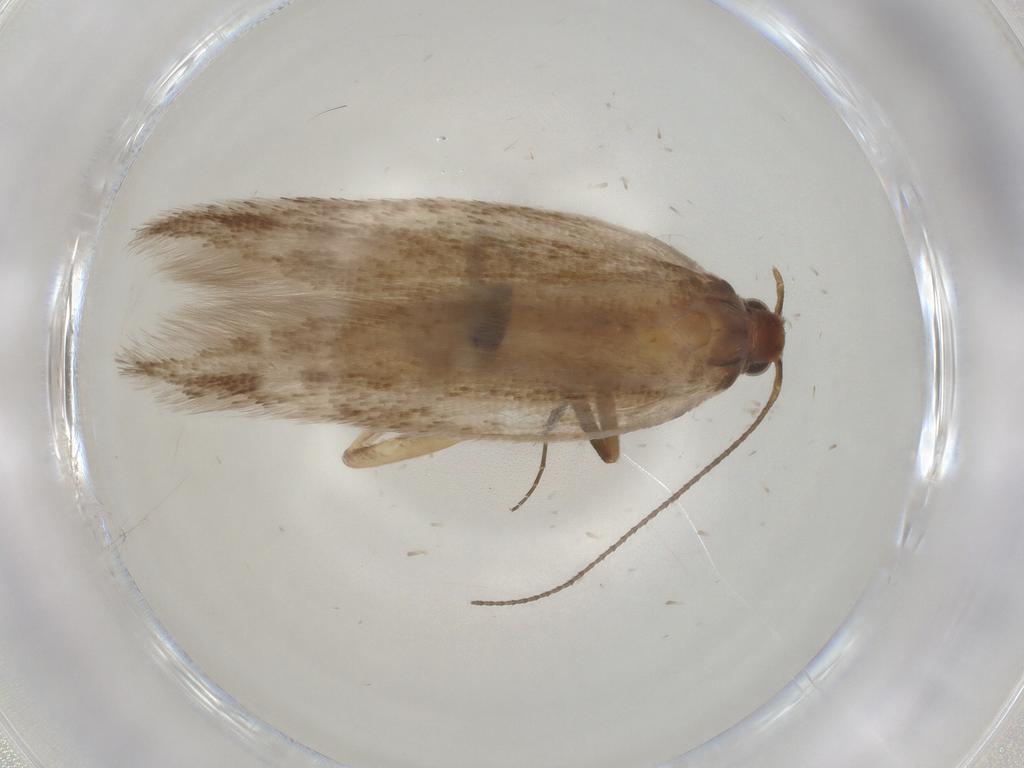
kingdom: Animalia
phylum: Arthropoda
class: Insecta
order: Lepidoptera
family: Gelechiidae
